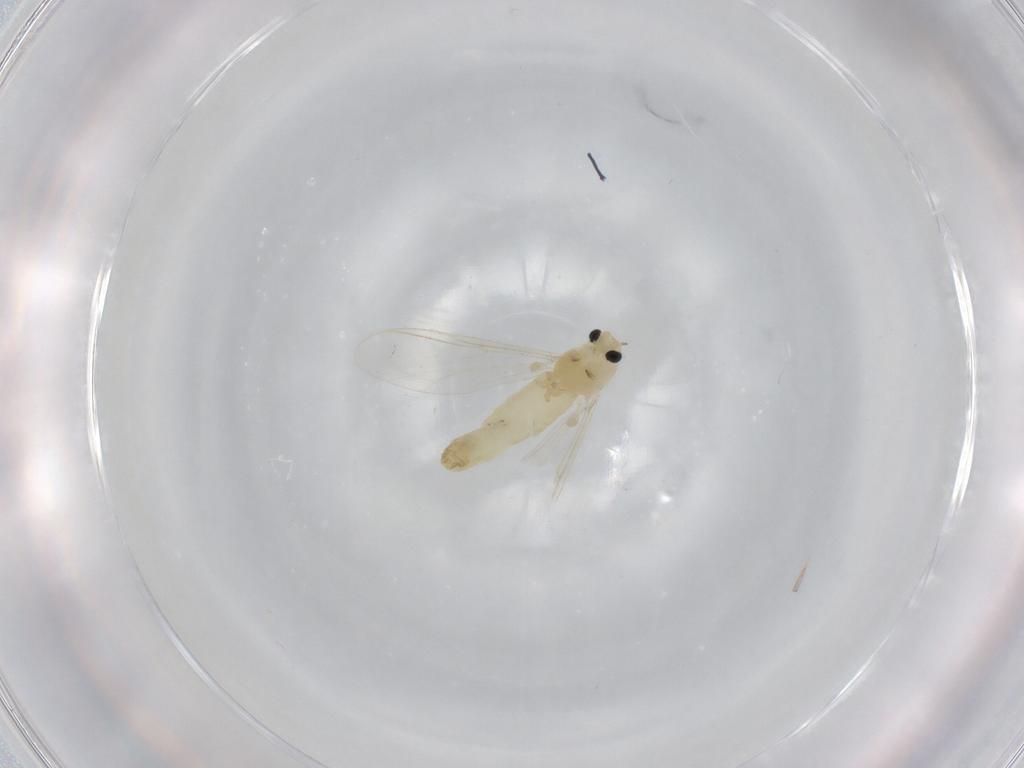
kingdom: Animalia
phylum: Arthropoda
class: Insecta
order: Diptera
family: Chironomidae
